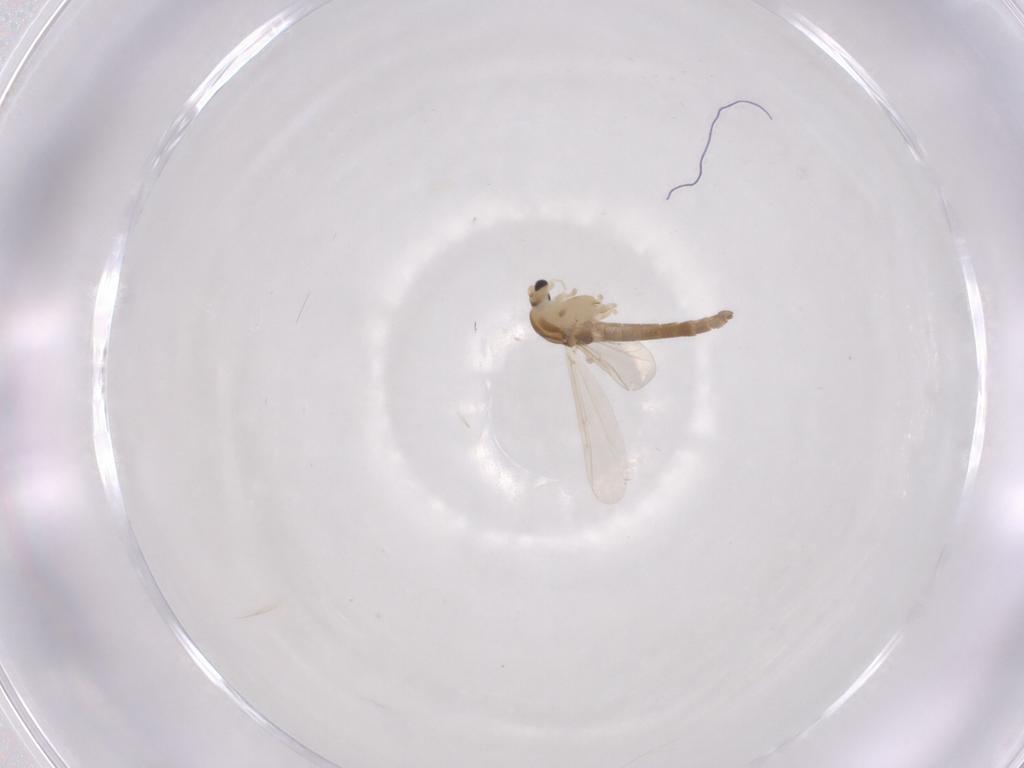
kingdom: Animalia
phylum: Arthropoda
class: Insecta
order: Diptera
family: Chironomidae
